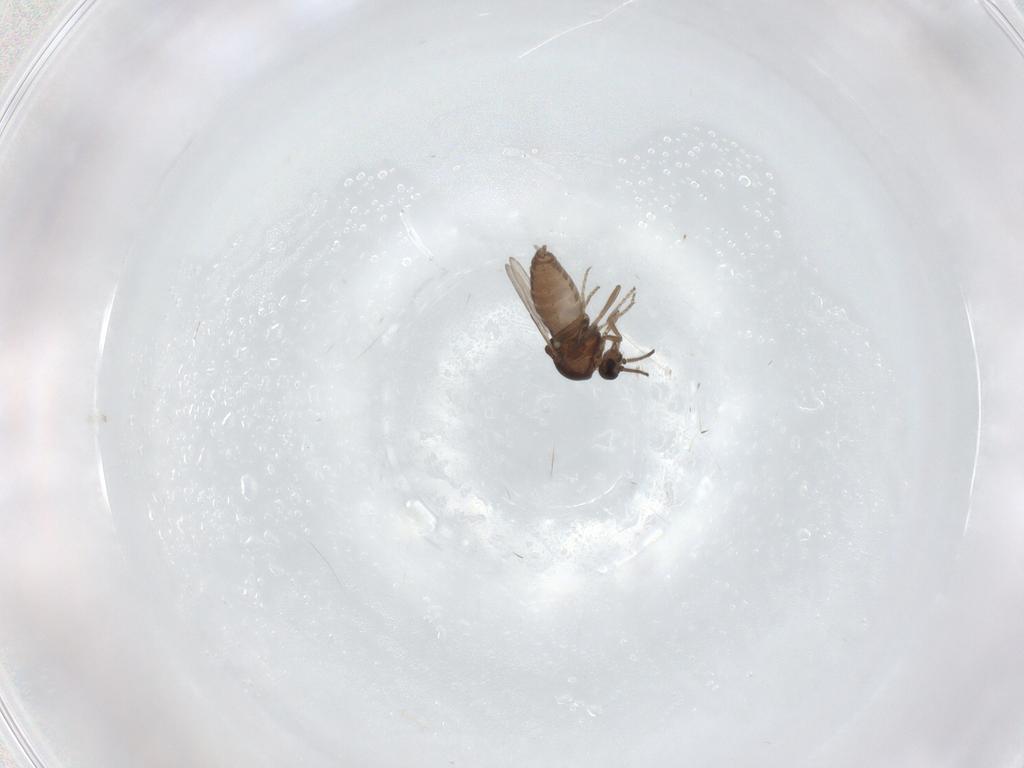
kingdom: Animalia
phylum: Arthropoda
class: Insecta
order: Diptera
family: Ceratopogonidae
